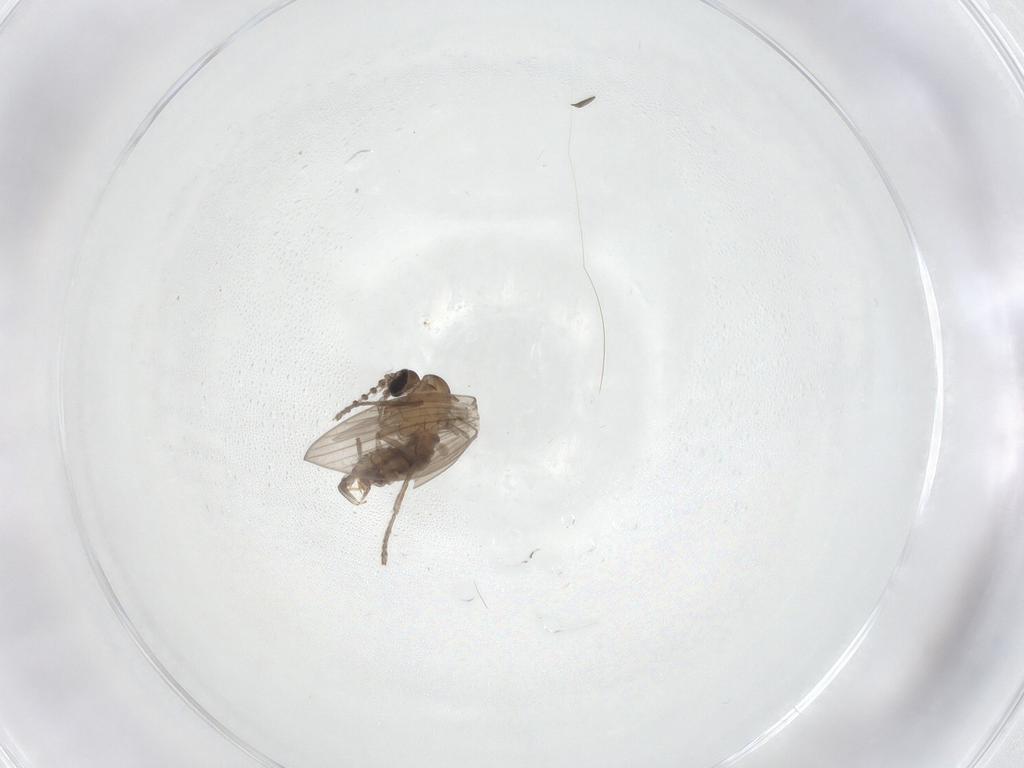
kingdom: Animalia
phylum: Arthropoda
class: Insecta
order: Diptera
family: Psychodidae
